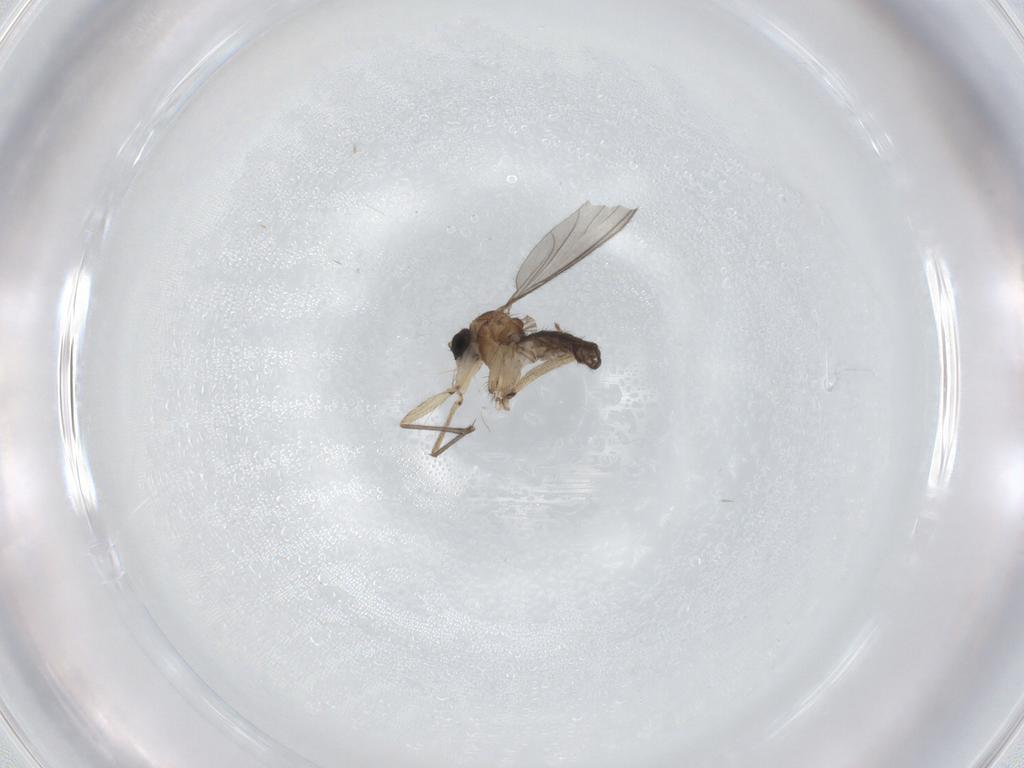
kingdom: Animalia
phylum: Arthropoda
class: Insecta
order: Diptera
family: Sciaridae
